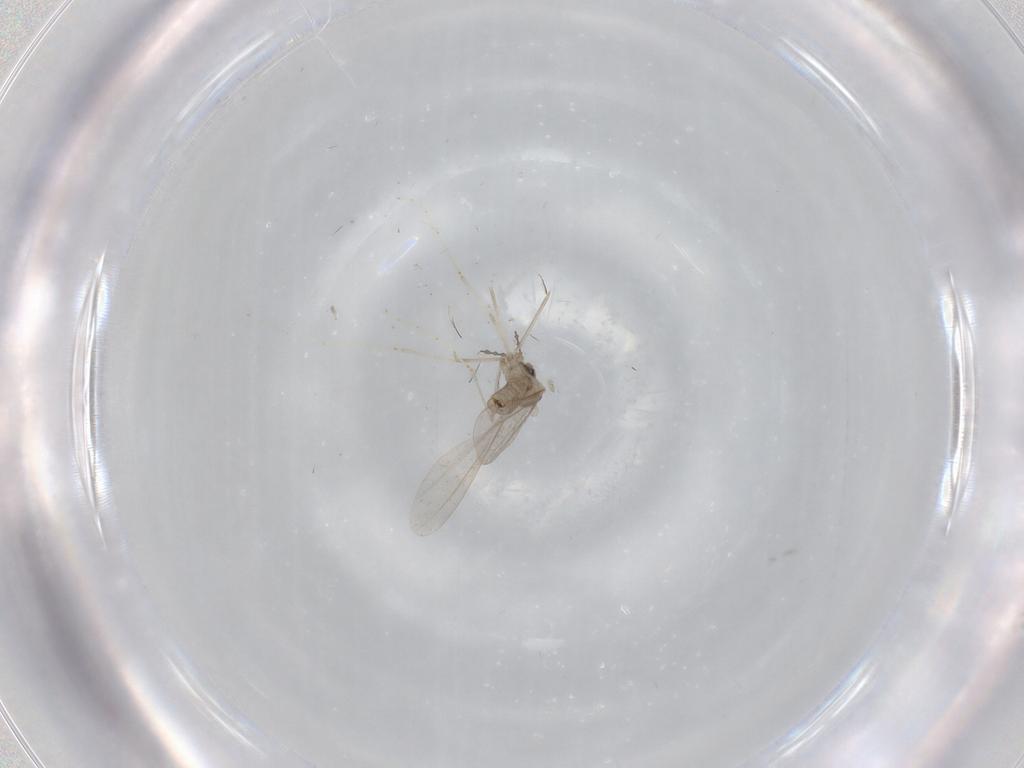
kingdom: Animalia
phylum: Arthropoda
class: Insecta
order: Diptera
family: Cecidomyiidae
